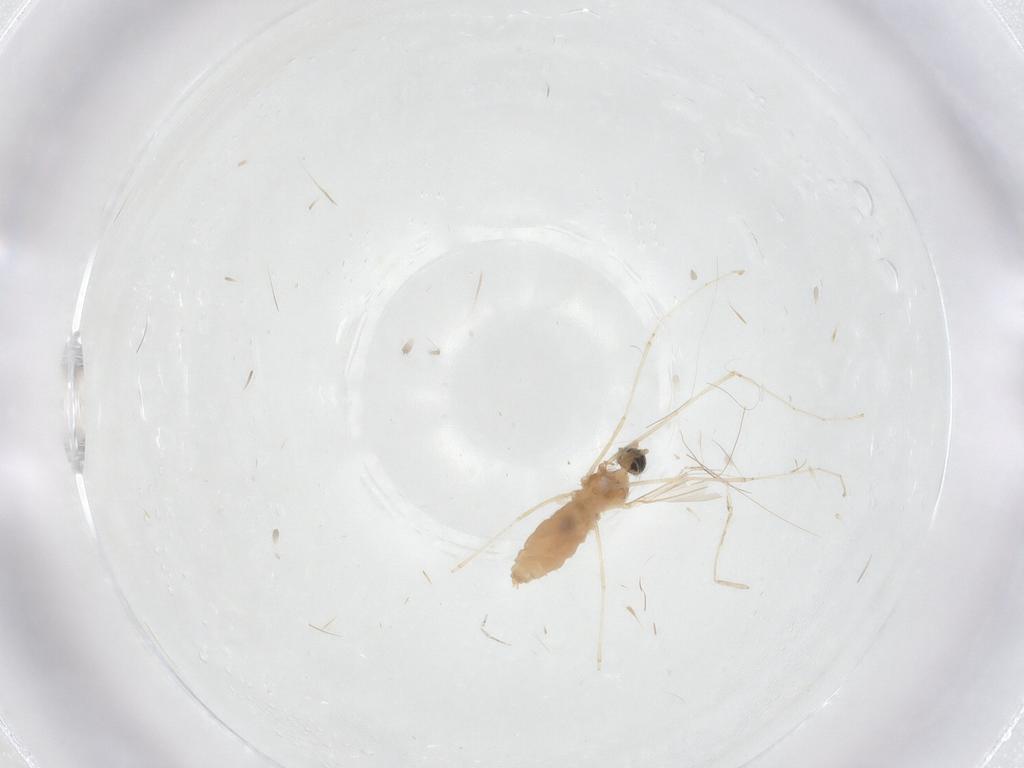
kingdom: Animalia
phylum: Arthropoda
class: Insecta
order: Diptera
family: Cecidomyiidae
